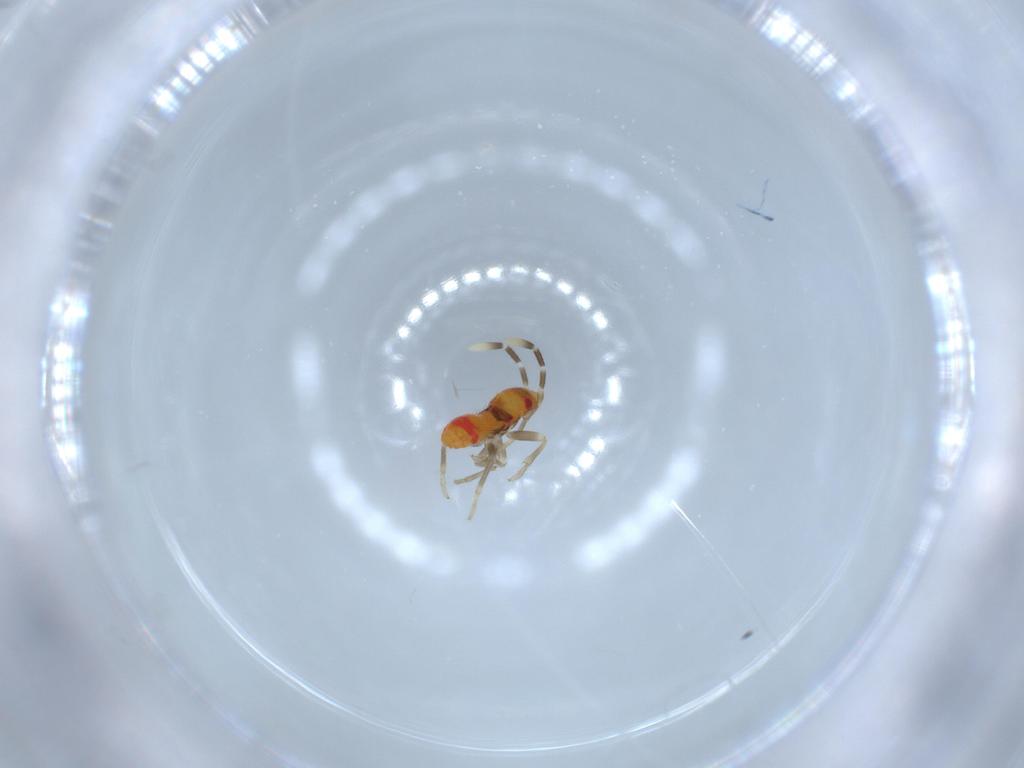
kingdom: Animalia
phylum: Arthropoda
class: Insecta
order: Hemiptera
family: Rhyparochromidae
